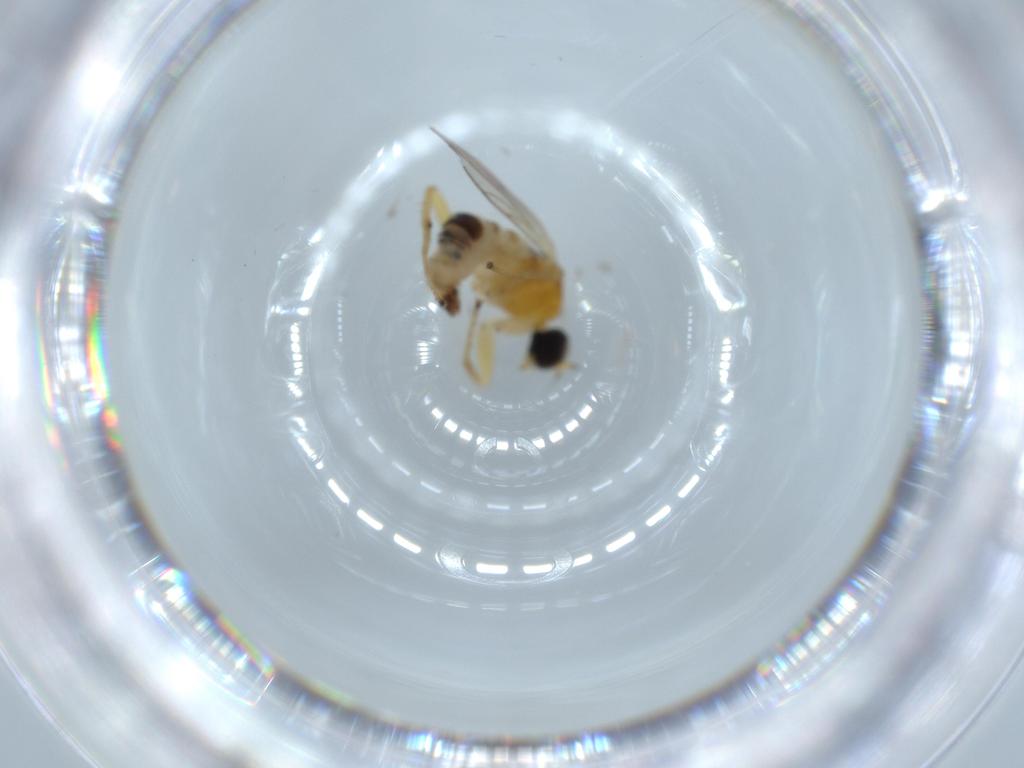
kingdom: Animalia
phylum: Arthropoda
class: Insecta
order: Diptera
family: Hybotidae
